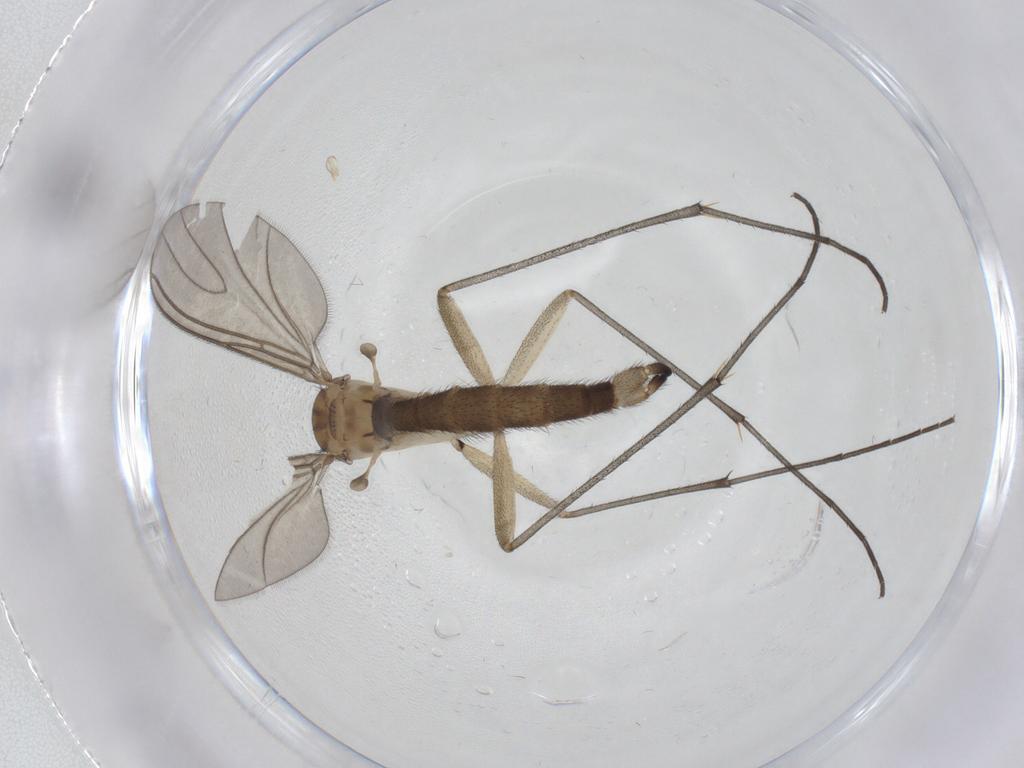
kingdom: Animalia
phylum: Arthropoda
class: Insecta
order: Diptera
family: Sciaridae
